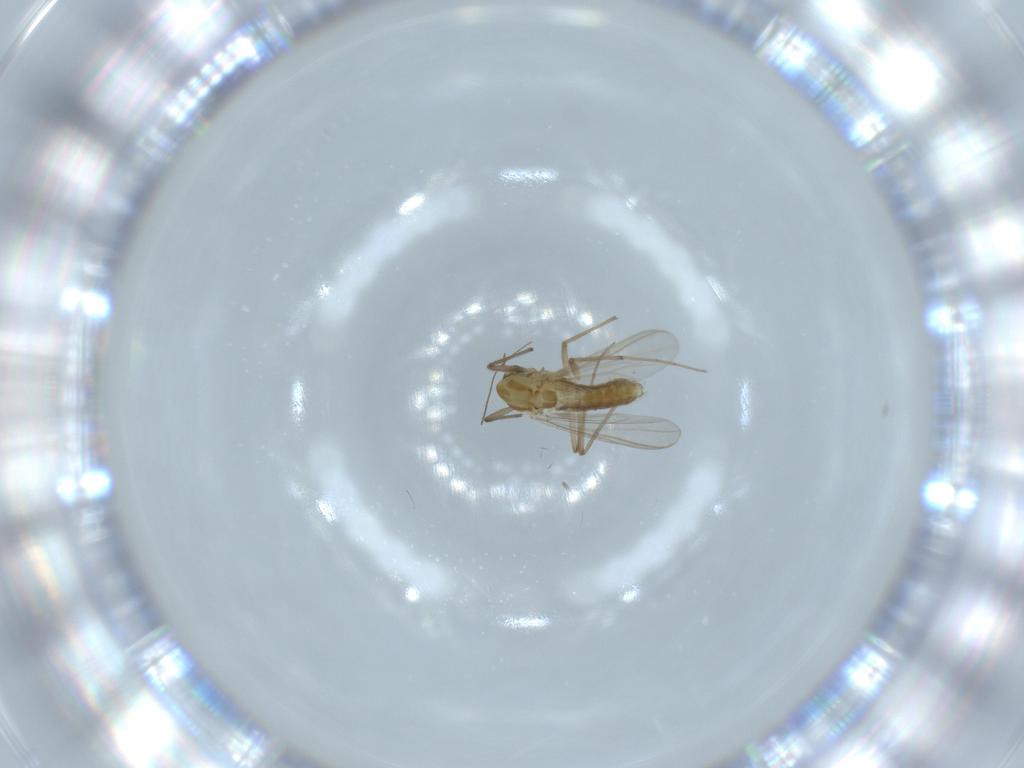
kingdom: Animalia
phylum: Arthropoda
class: Insecta
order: Diptera
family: Chironomidae
